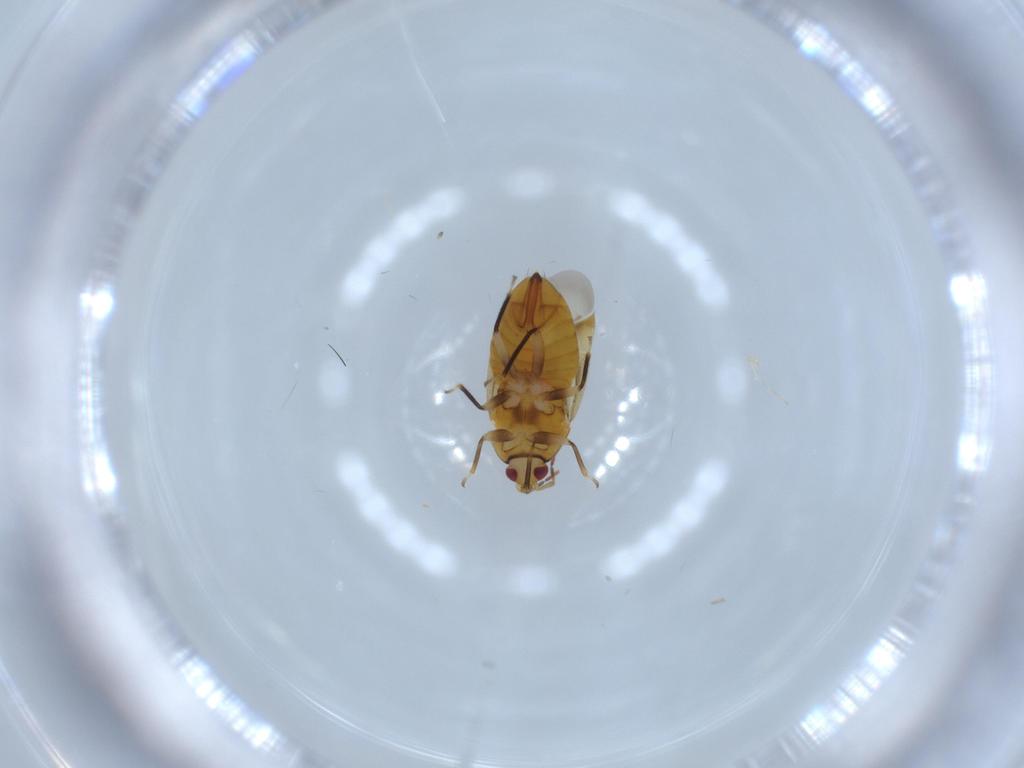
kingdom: Animalia
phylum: Arthropoda
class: Insecta
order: Hemiptera
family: Anthocoridae
